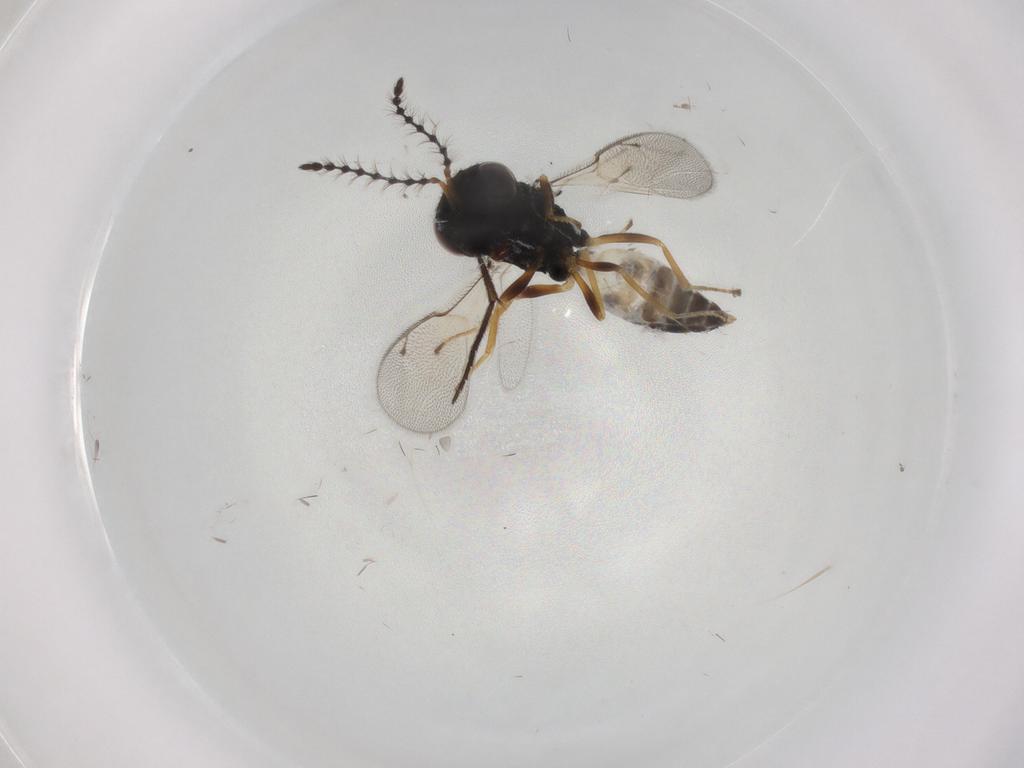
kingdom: Animalia
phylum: Arthropoda
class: Insecta
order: Hymenoptera
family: Pteromalidae
